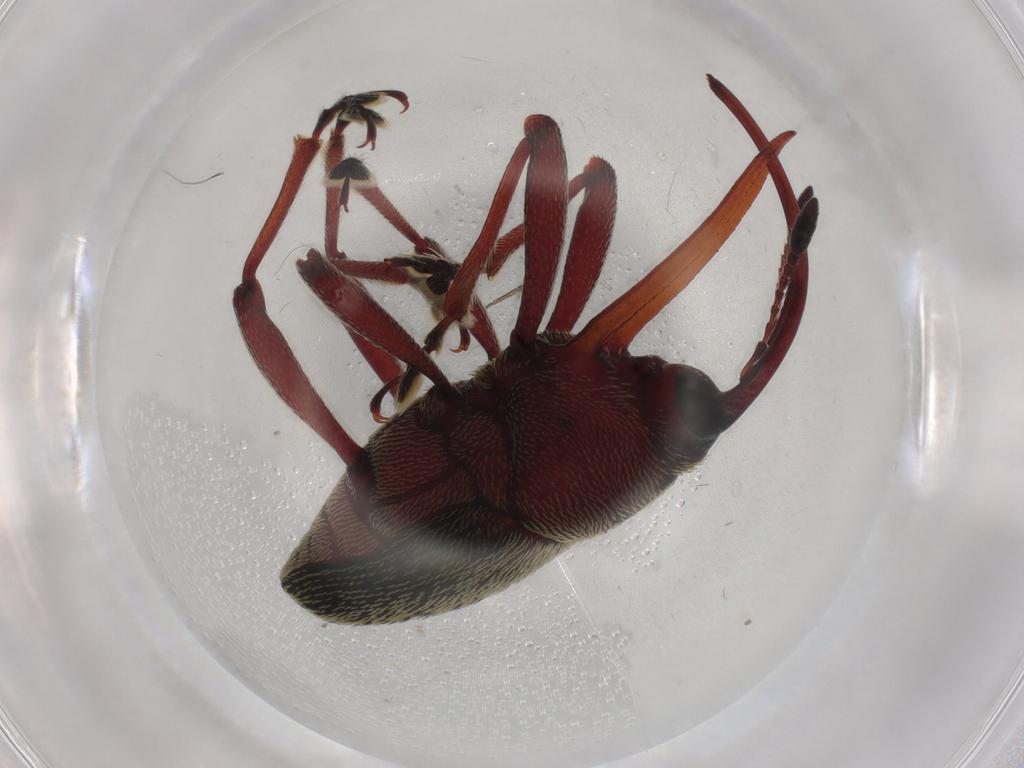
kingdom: Animalia
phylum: Arthropoda
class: Insecta
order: Coleoptera
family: Curculionidae
